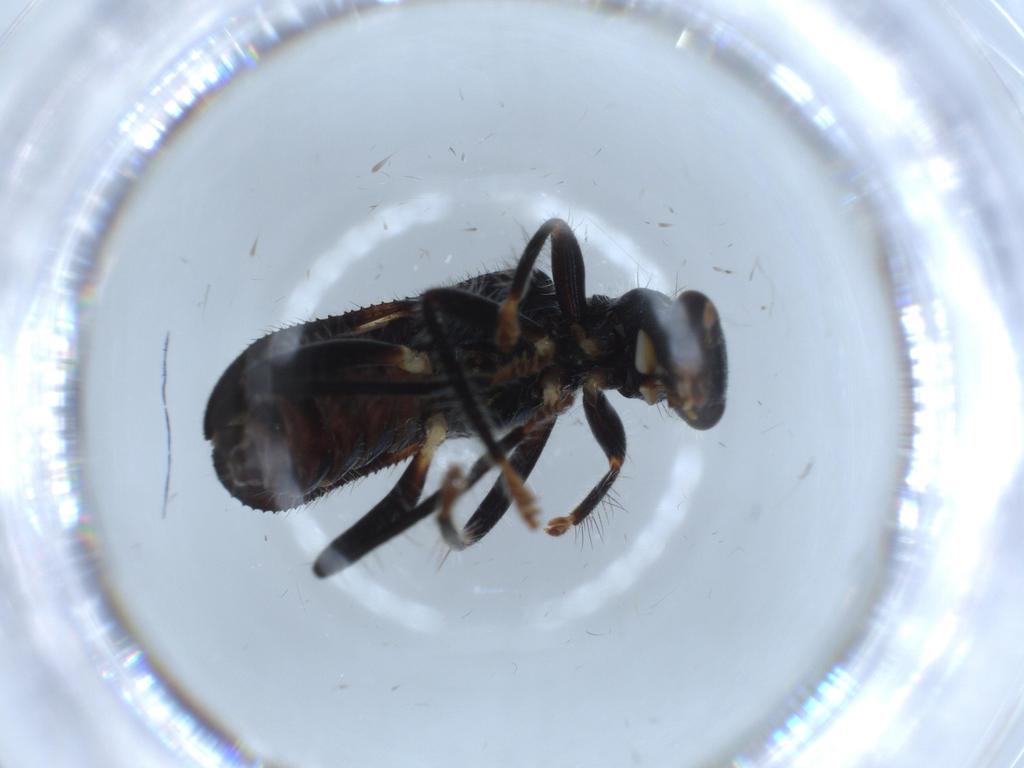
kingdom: Animalia
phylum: Arthropoda
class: Insecta
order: Coleoptera
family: Cleridae
